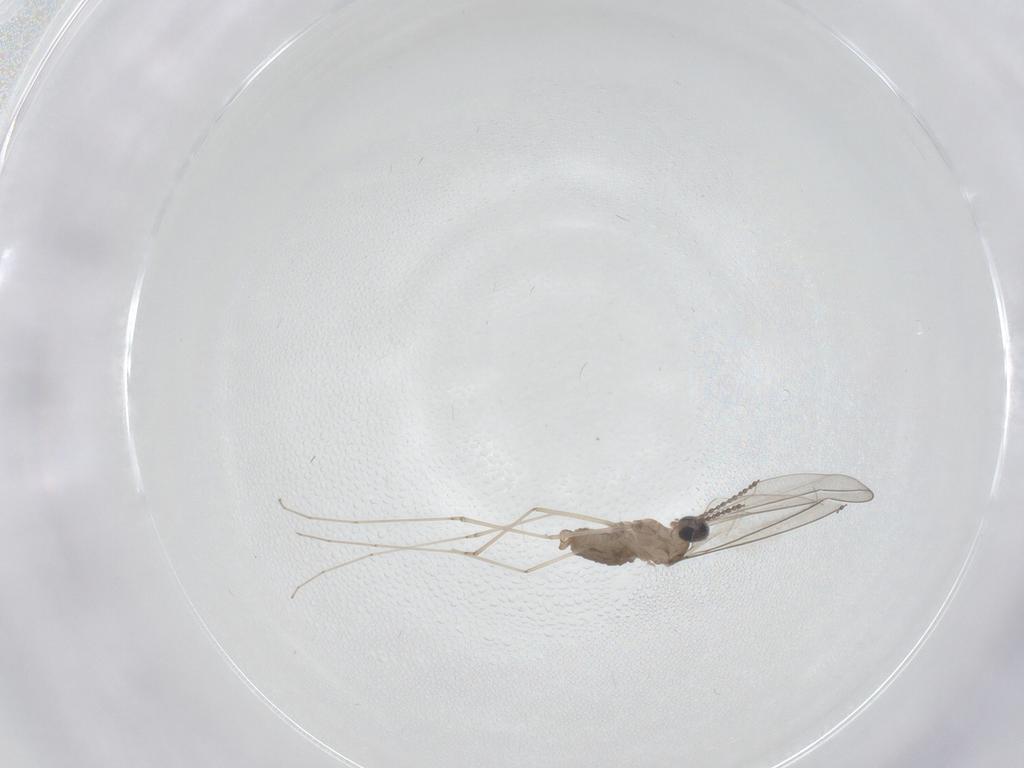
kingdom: Animalia
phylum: Arthropoda
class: Insecta
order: Diptera
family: Cecidomyiidae
